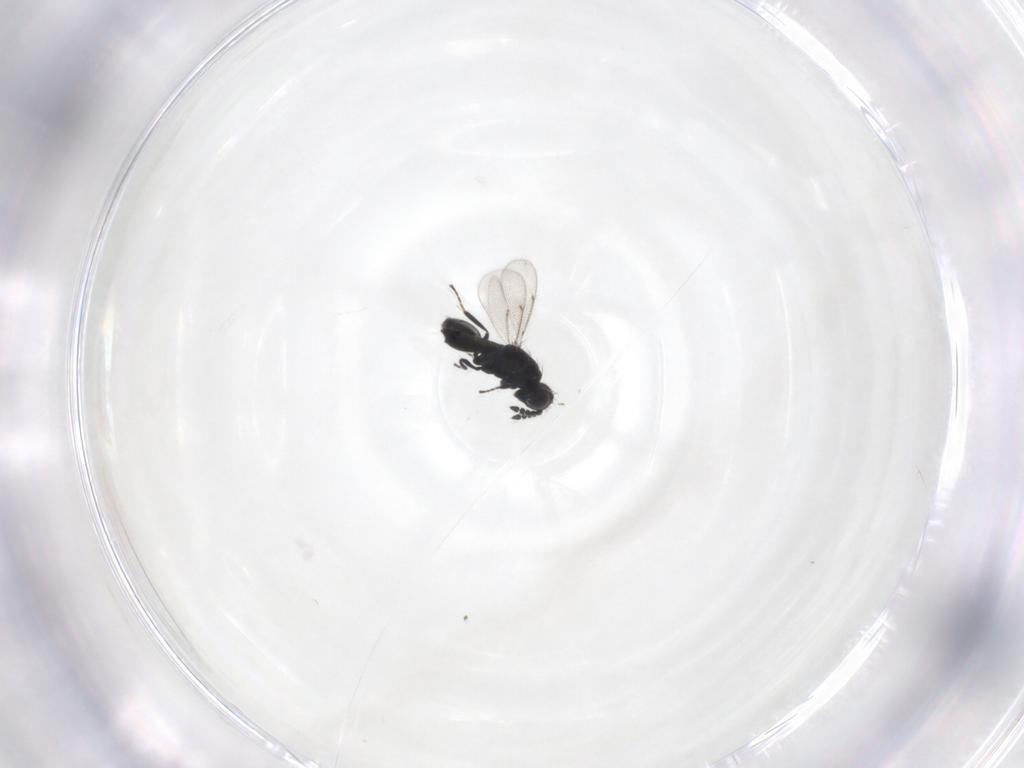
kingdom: Animalia
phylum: Arthropoda
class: Insecta
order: Hymenoptera
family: Eulophidae
